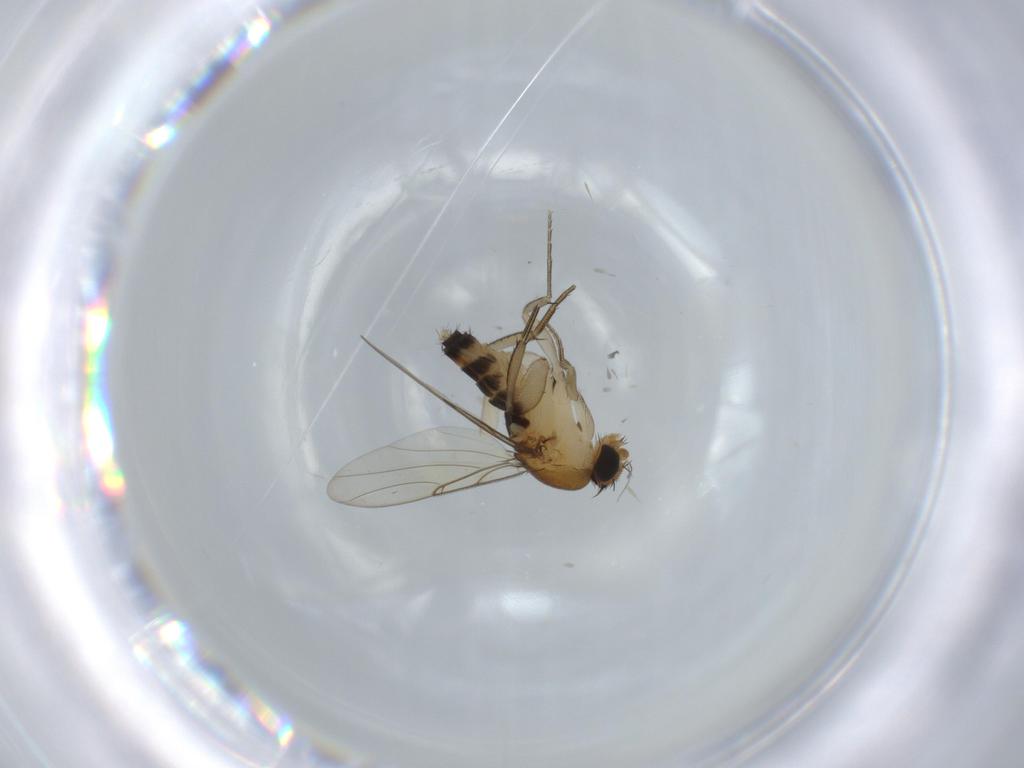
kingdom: Animalia
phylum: Arthropoda
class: Insecta
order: Diptera
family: Phoridae
